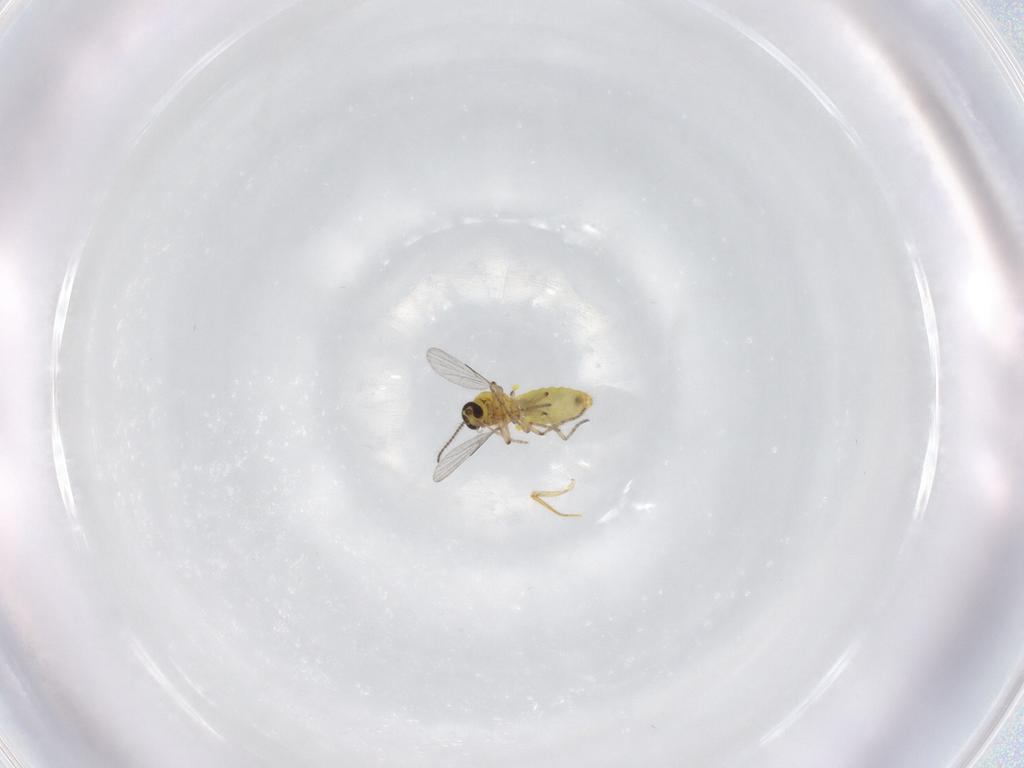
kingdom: Animalia
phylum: Arthropoda
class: Insecta
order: Diptera
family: Ceratopogonidae
